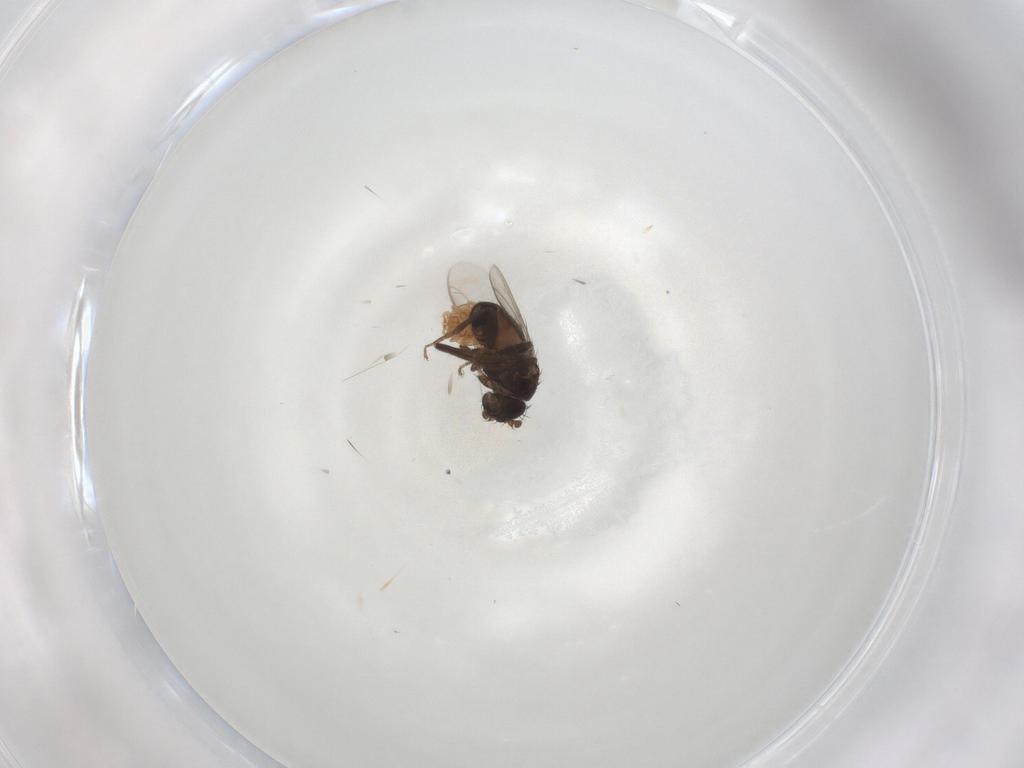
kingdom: Animalia
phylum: Arthropoda
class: Insecta
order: Diptera
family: Sphaeroceridae
